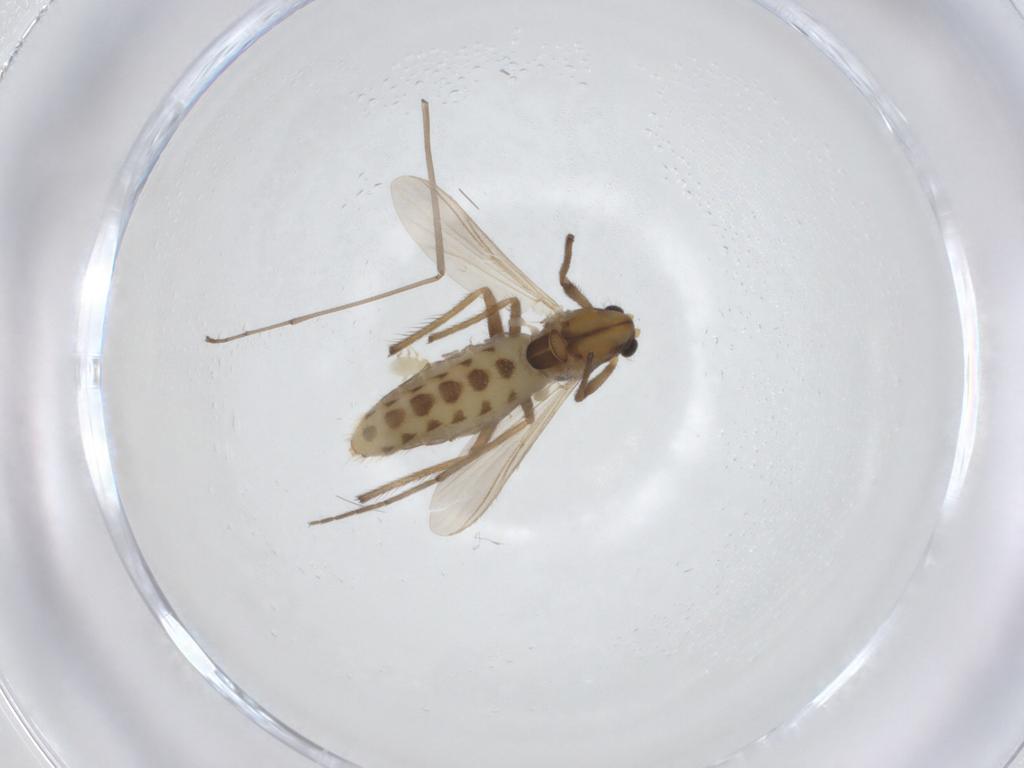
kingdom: Animalia
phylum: Arthropoda
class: Insecta
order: Diptera
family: Chironomidae
